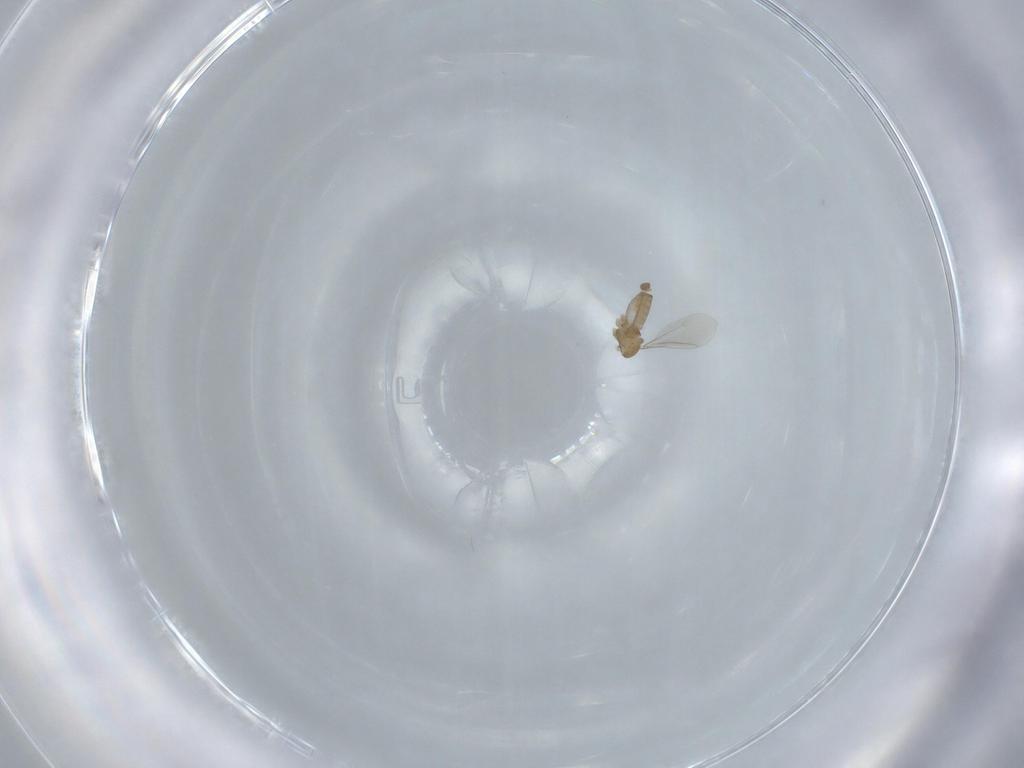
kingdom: Animalia
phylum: Arthropoda
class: Insecta
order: Diptera
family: Cecidomyiidae
